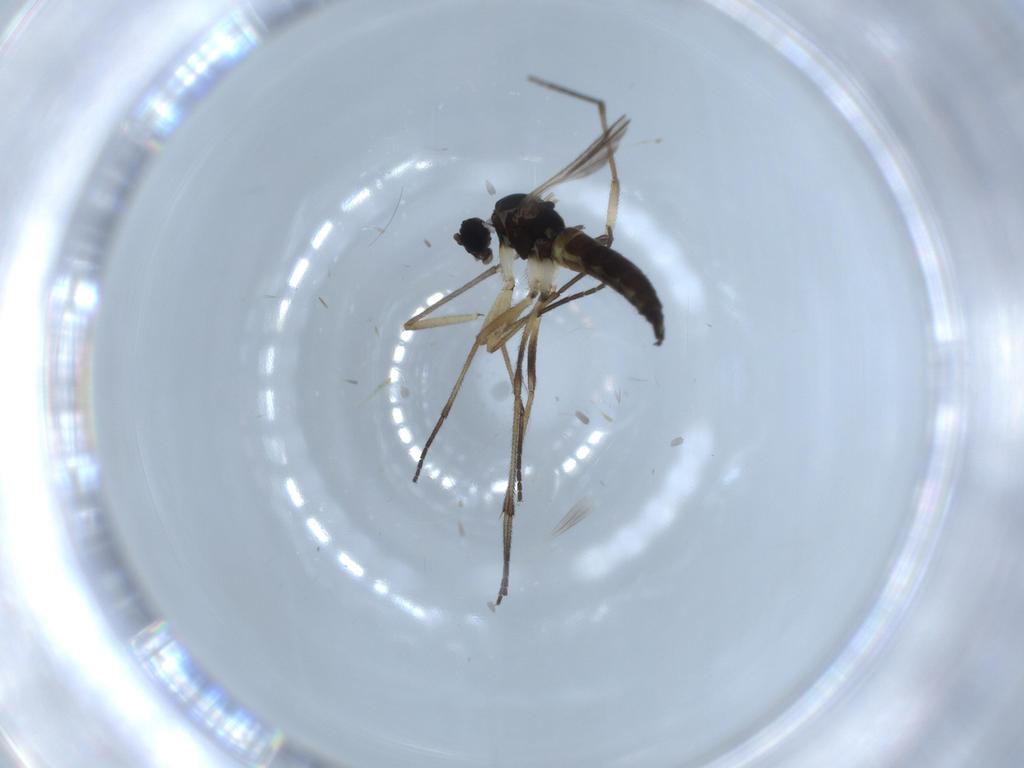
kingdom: Animalia
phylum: Arthropoda
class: Insecta
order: Diptera
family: Sciaridae
